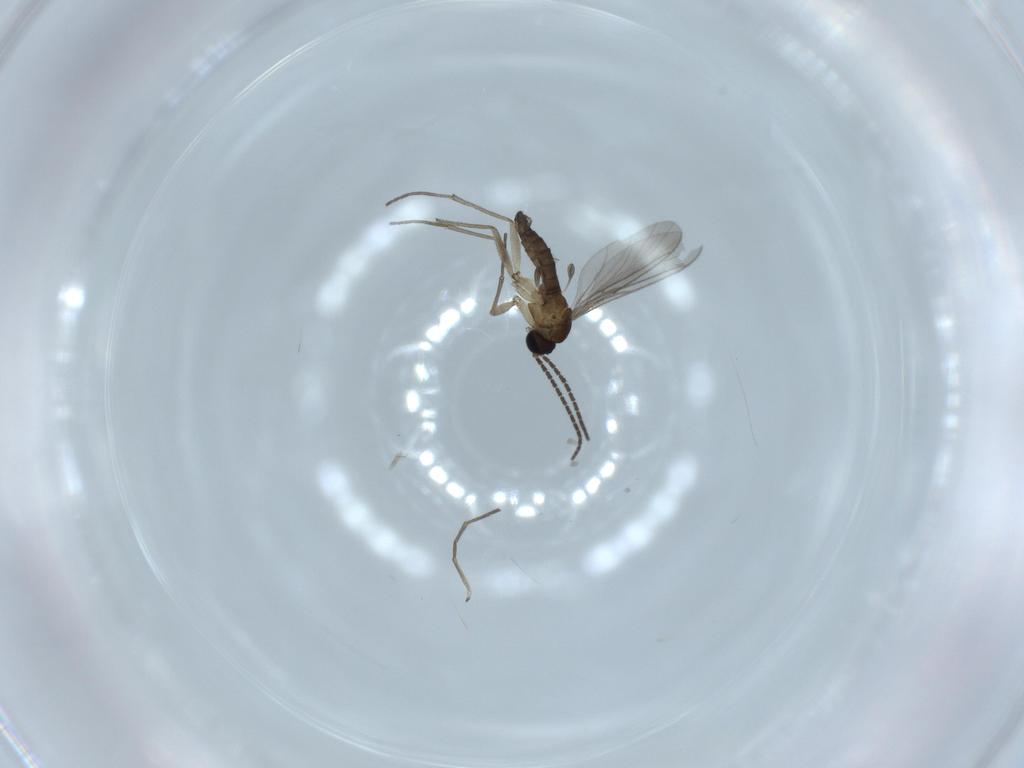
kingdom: Animalia
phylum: Arthropoda
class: Insecta
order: Diptera
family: Sciaridae
